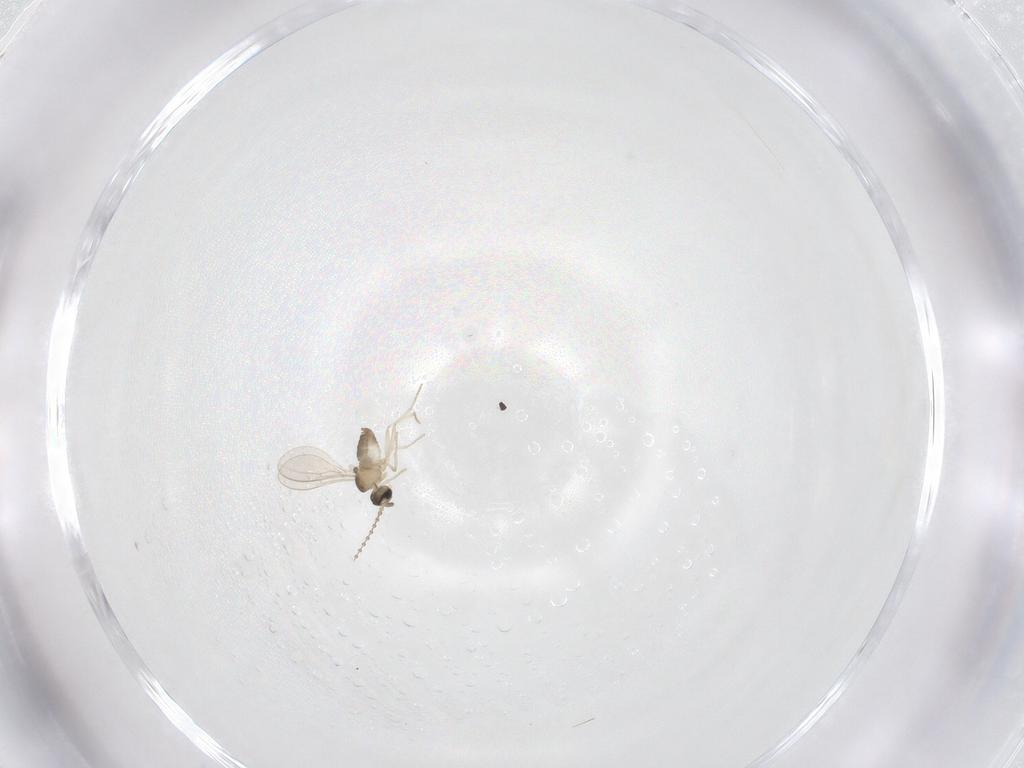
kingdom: Animalia
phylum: Arthropoda
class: Insecta
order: Diptera
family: Cecidomyiidae
